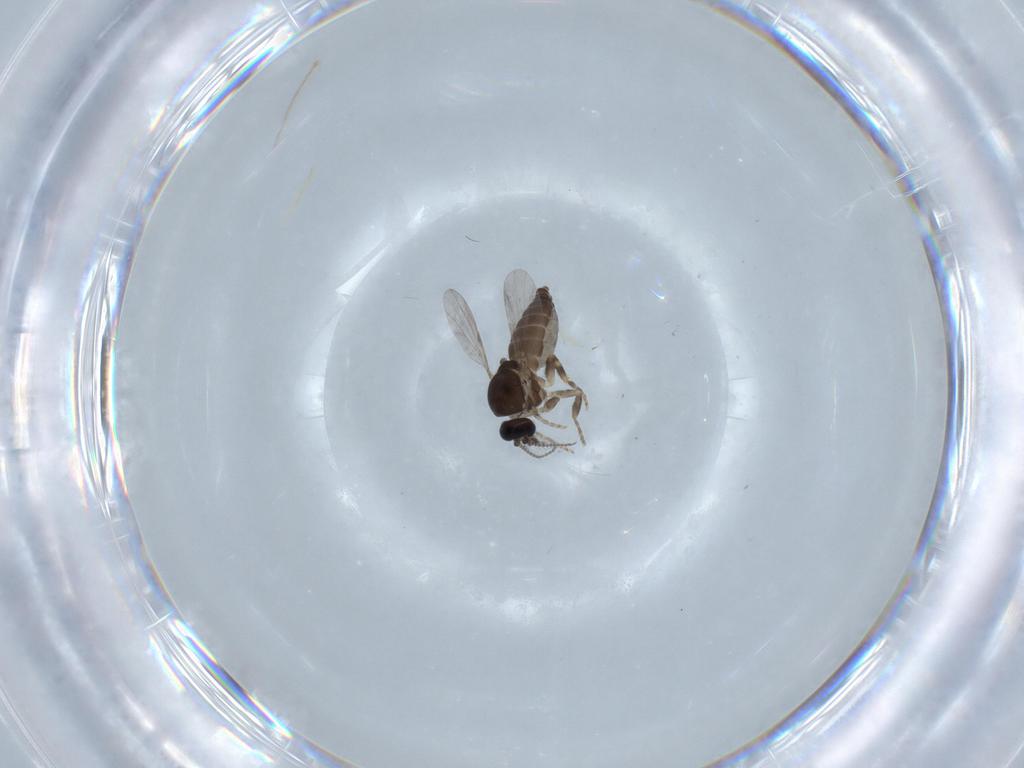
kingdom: Animalia
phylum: Arthropoda
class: Insecta
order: Diptera
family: Ceratopogonidae
